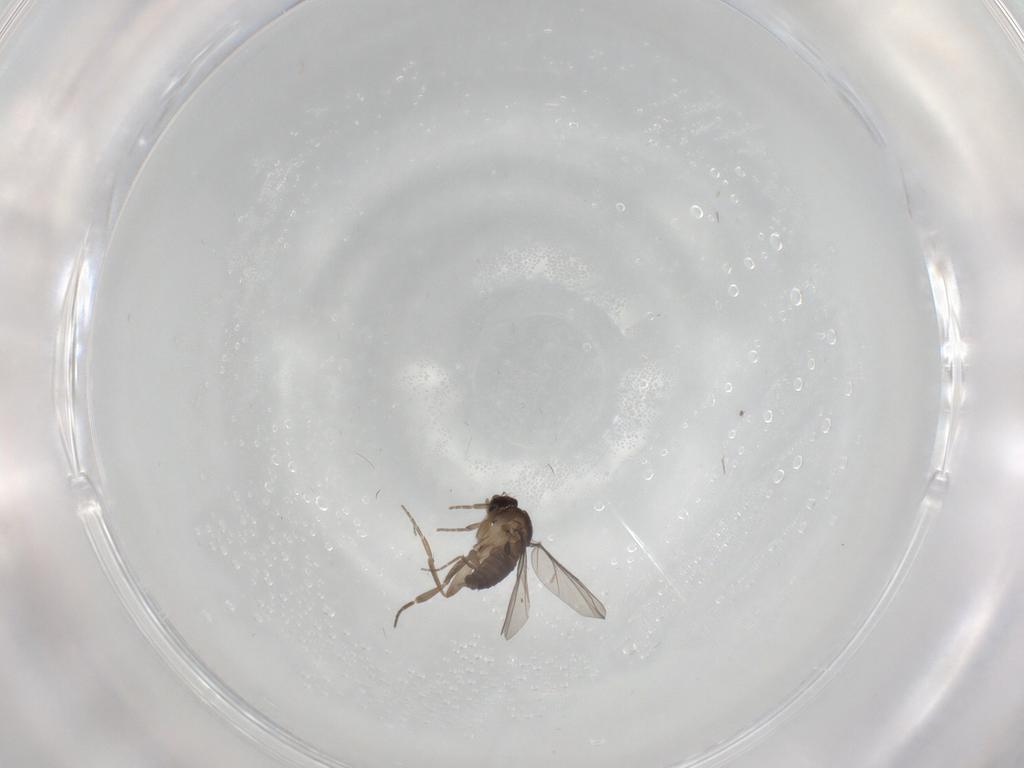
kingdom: Animalia
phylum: Arthropoda
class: Insecta
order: Diptera
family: Phoridae
